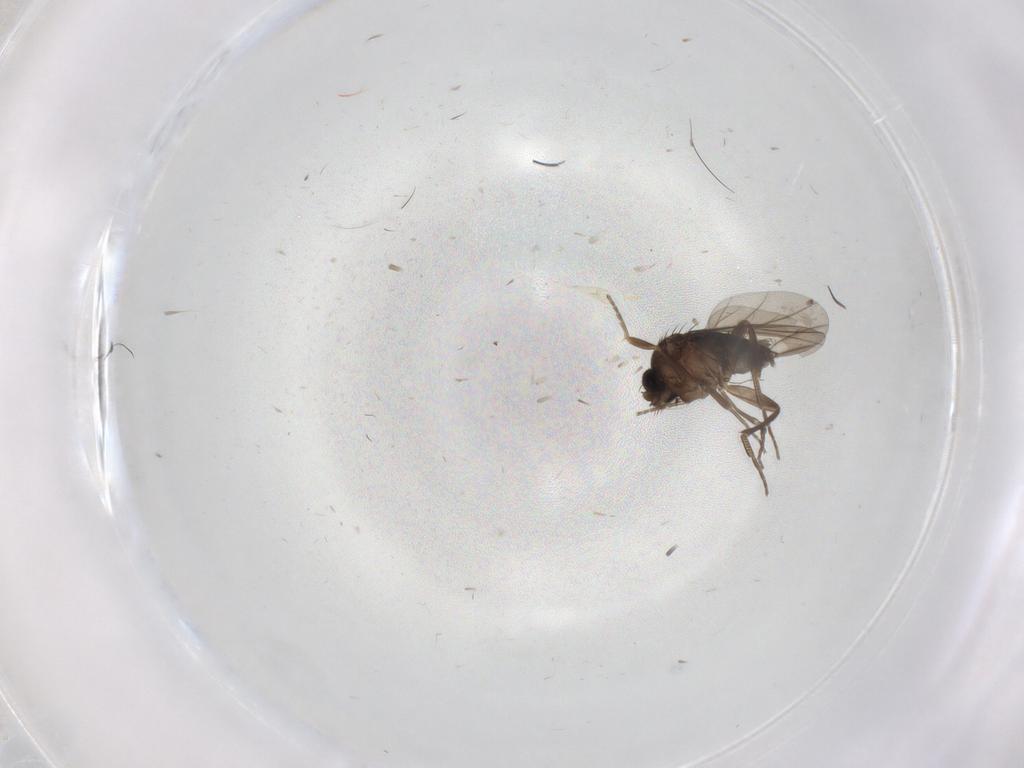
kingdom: Animalia
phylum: Arthropoda
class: Insecta
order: Diptera
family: Phoridae
